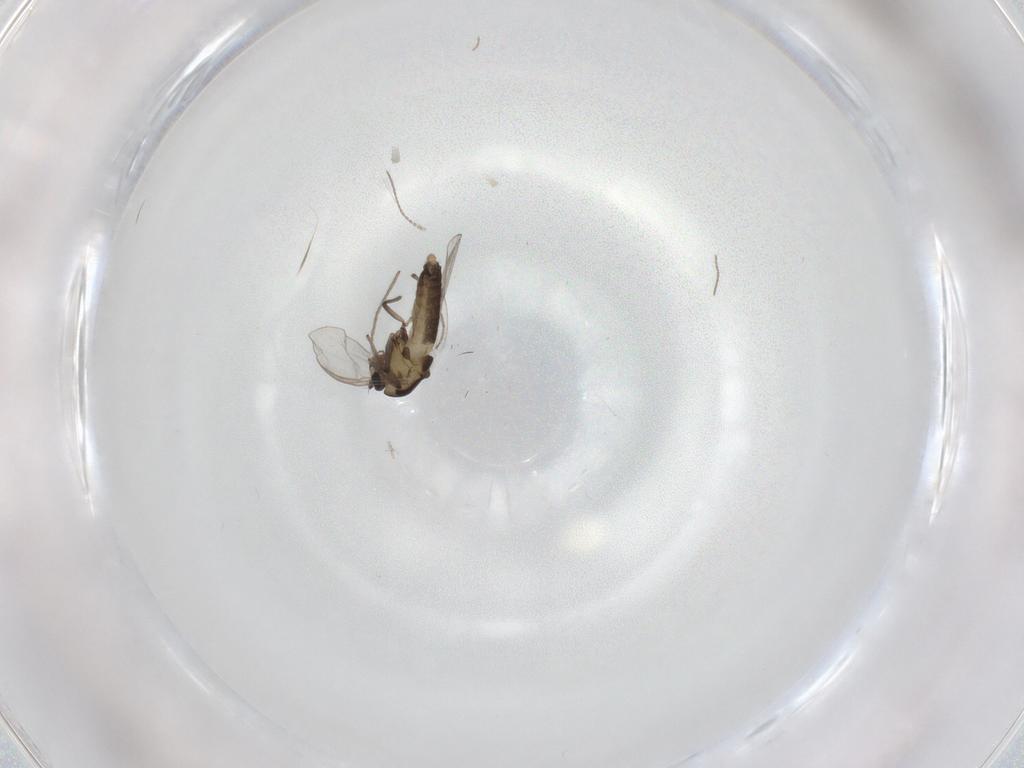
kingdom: Animalia
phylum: Arthropoda
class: Insecta
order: Diptera
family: Chironomidae
